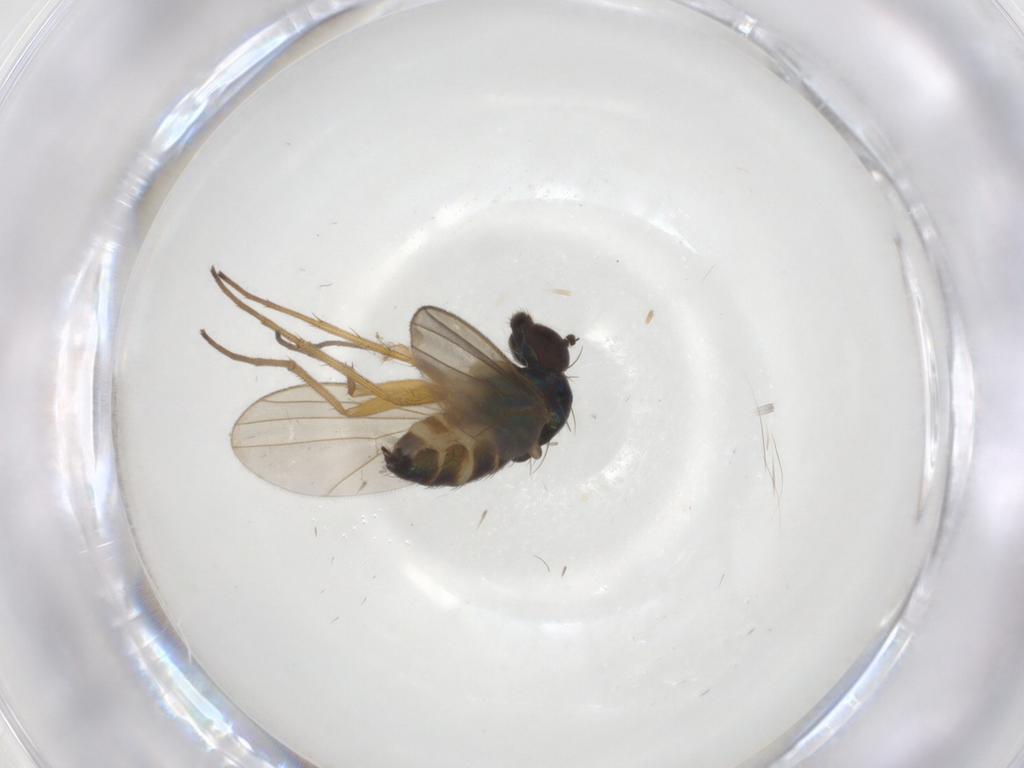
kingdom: Animalia
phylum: Arthropoda
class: Insecta
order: Diptera
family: Dolichopodidae
